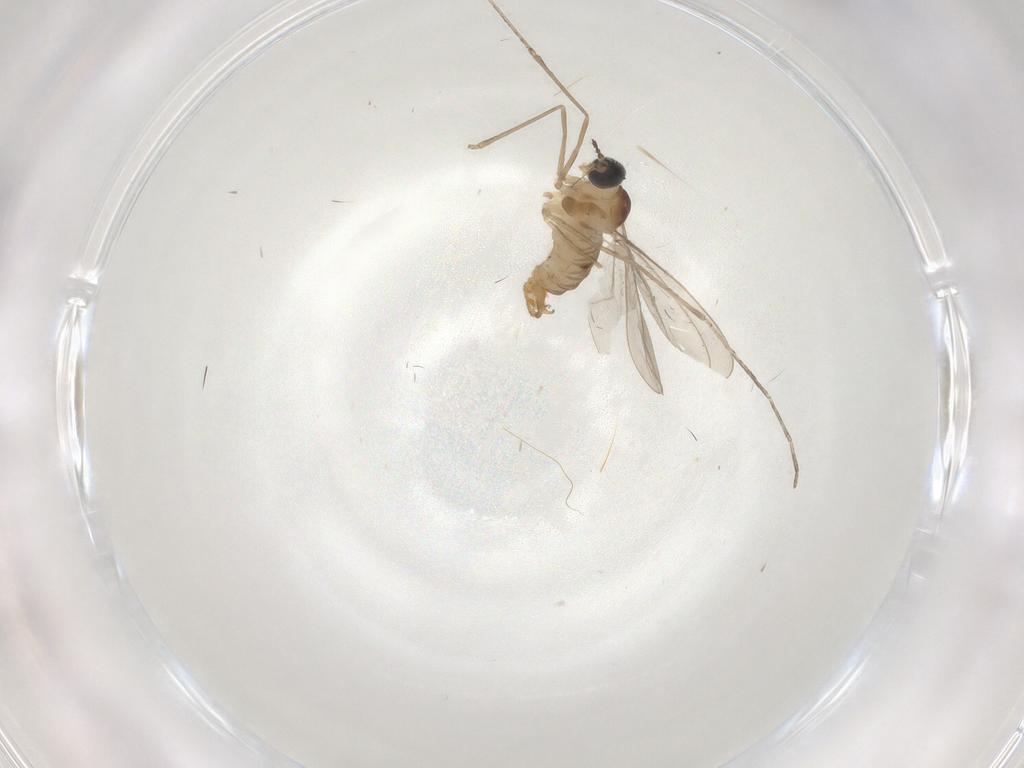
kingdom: Animalia
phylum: Arthropoda
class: Insecta
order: Diptera
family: Cecidomyiidae
